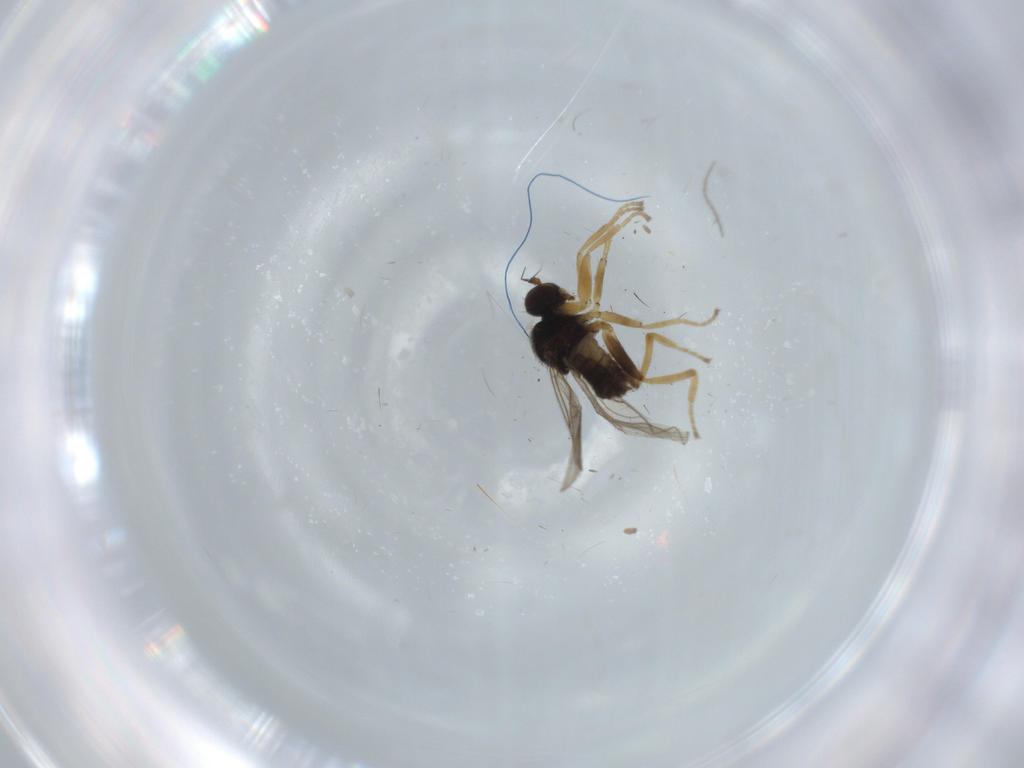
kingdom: Animalia
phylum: Arthropoda
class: Insecta
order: Diptera
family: Hybotidae
